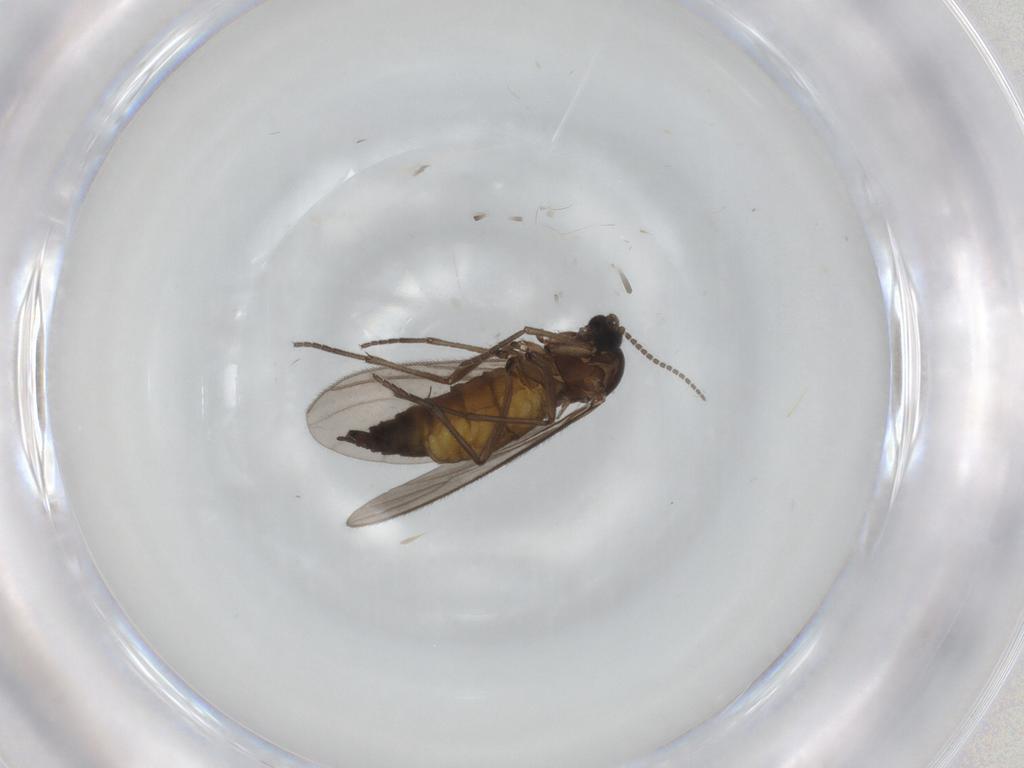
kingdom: Animalia
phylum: Arthropoda
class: Insecta
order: Diptera
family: Sciaridae
